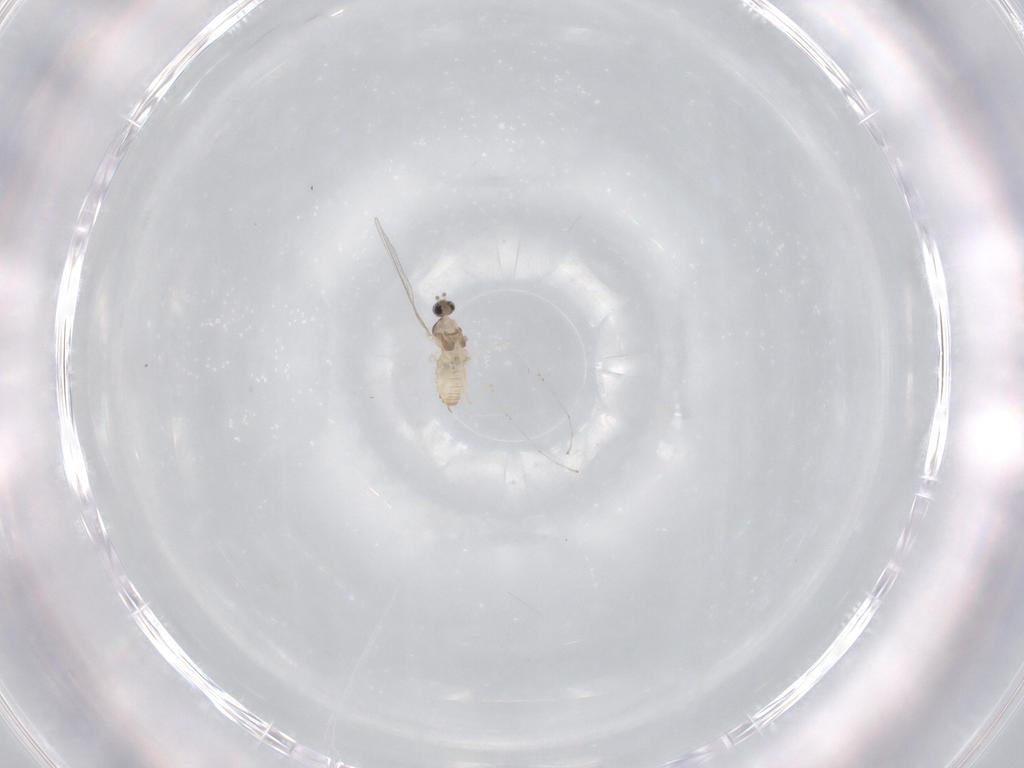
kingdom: Animalia
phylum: Arthropoda
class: Insecta
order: Diptera
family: Cecidomyiidae
